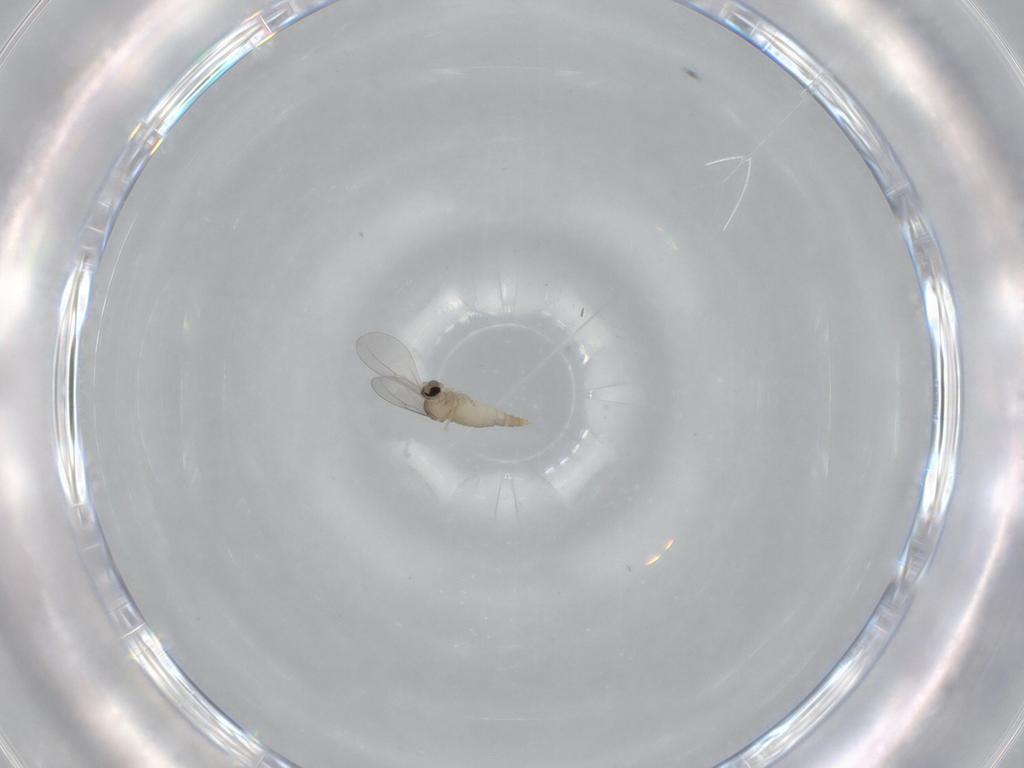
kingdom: Animalia
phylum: Arthropoda
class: Insecta
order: Diptera
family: Cecidomyiidae
